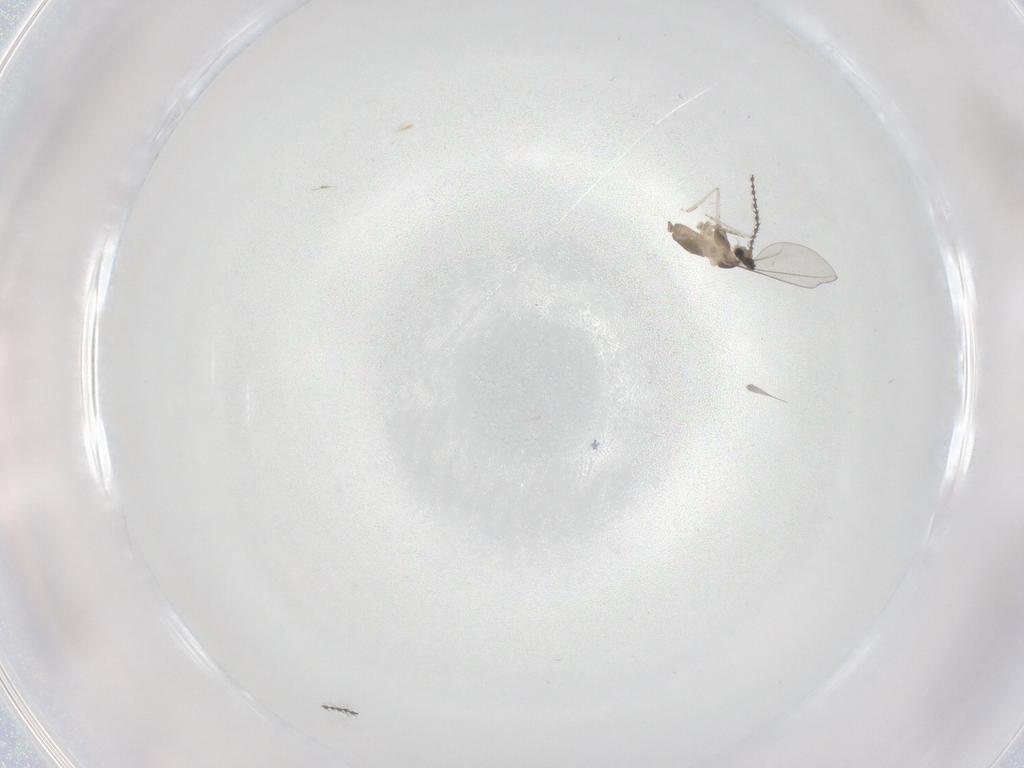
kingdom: Animalia
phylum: Arthropoda
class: Insecta
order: Diptera
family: Cecidomyiidae
